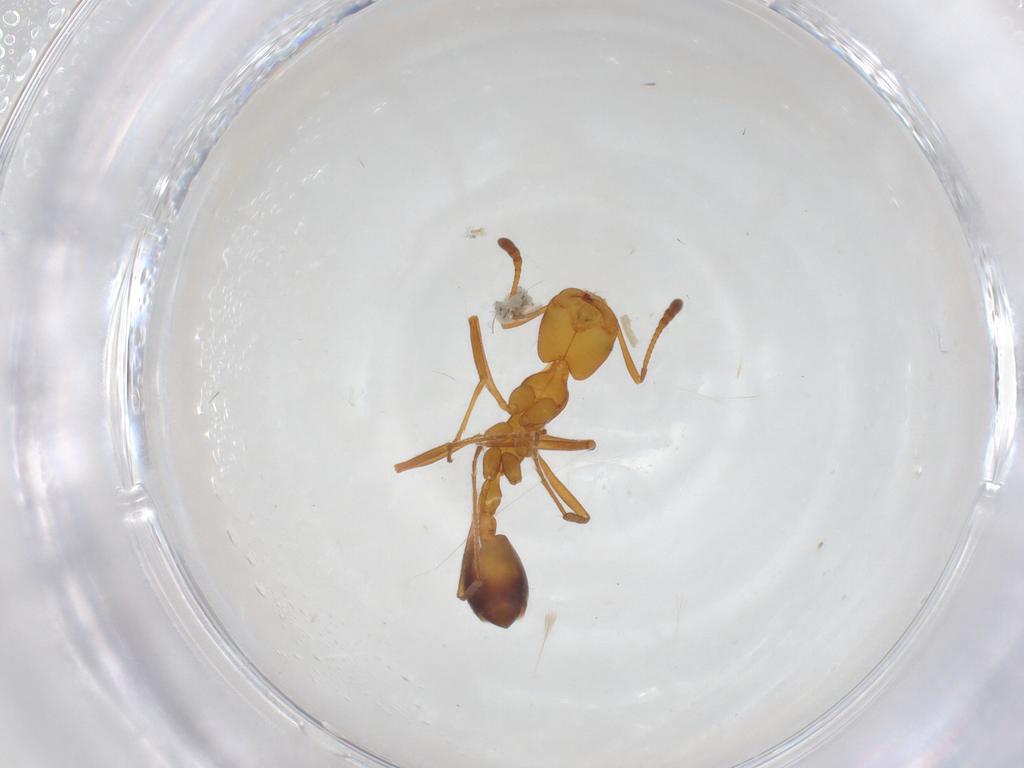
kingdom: Animalia
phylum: Arthropoda
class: Insecta
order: Hymenoptera
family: Formicidae
